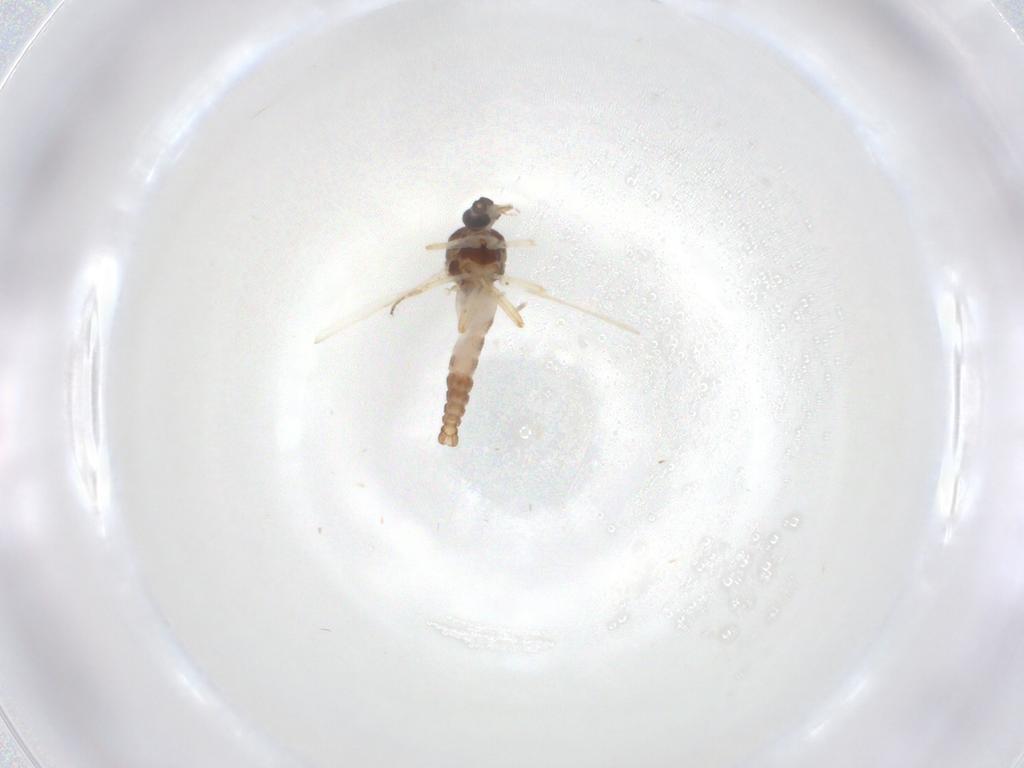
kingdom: Animalia
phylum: Arthropoda
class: Insecta
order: Diptera
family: Ceratopogonidae
